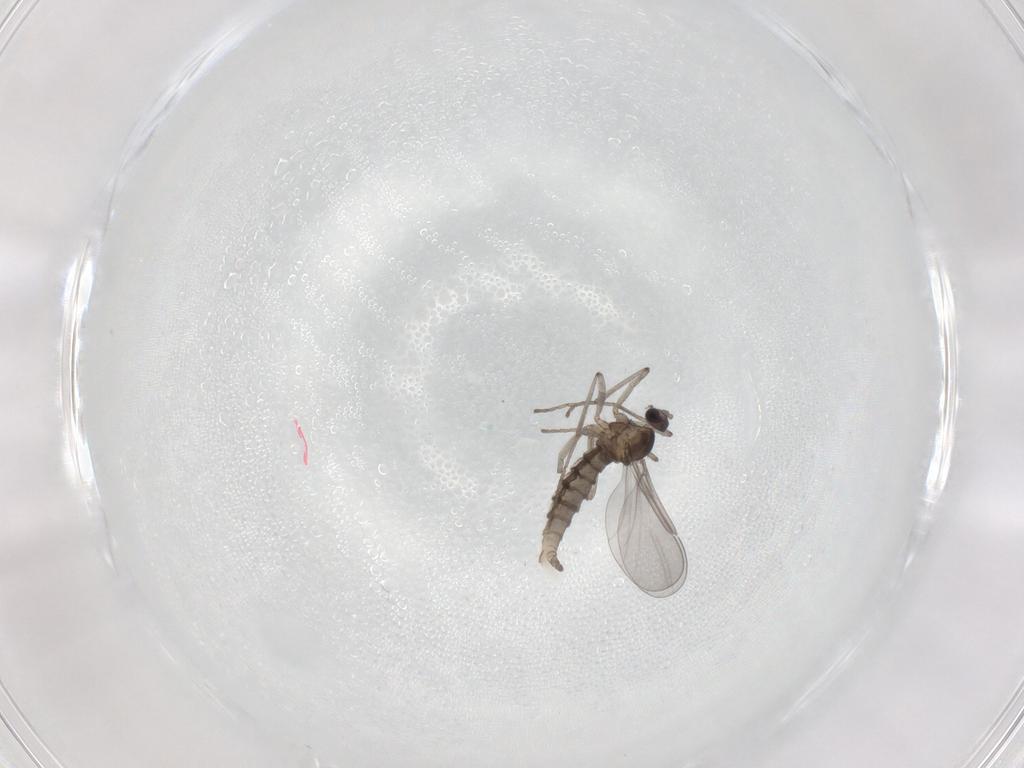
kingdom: Animalia
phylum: Arthropoda
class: Insecta
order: Diptera
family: Cecidomyiidae
